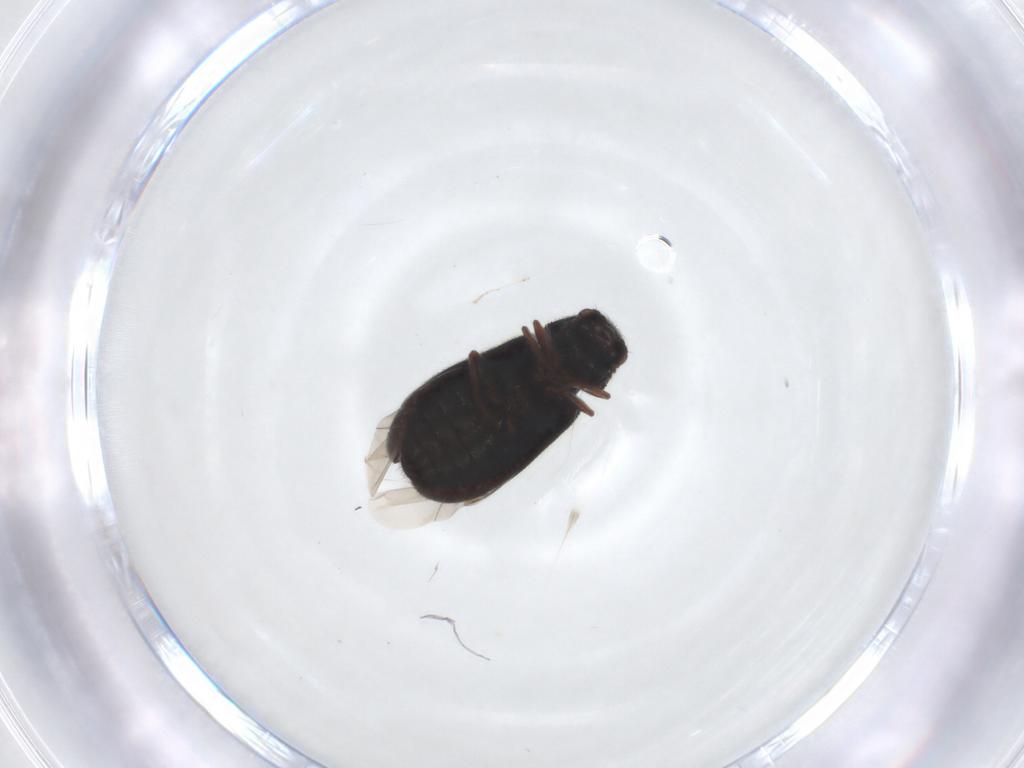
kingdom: Animalia
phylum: Arthropoda
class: Insecta
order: Coleoptera
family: Melyridae
